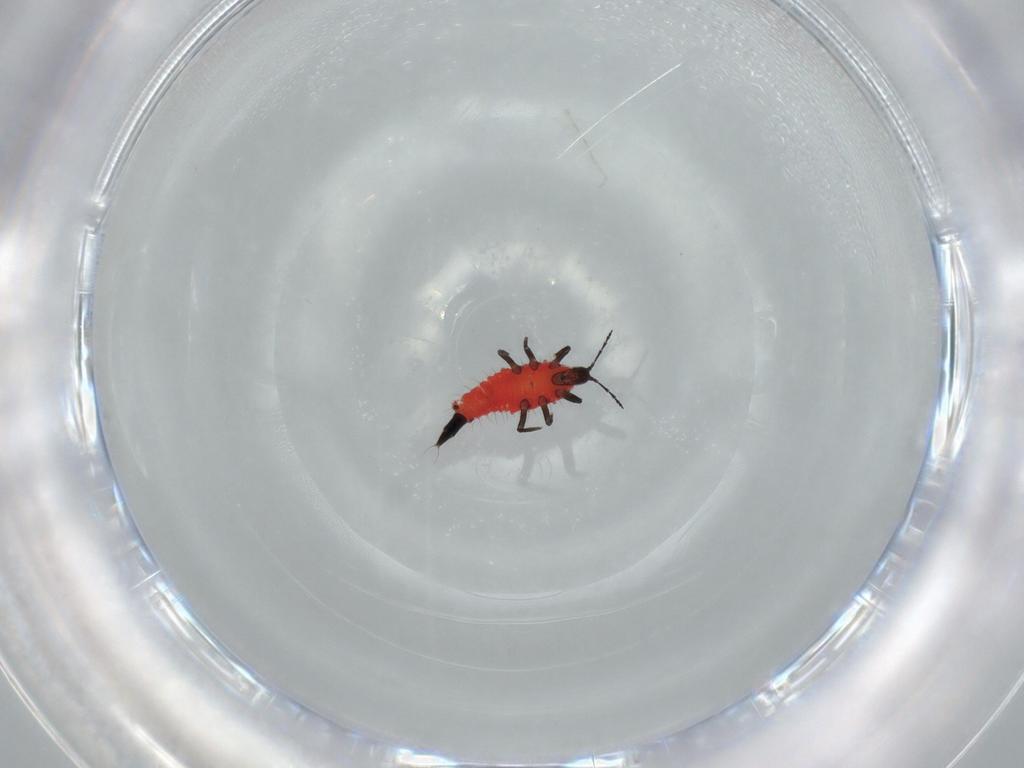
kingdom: Animalia
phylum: Arthropoda
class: Insecta
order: Thysanoptera
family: Phlaeothripidae
